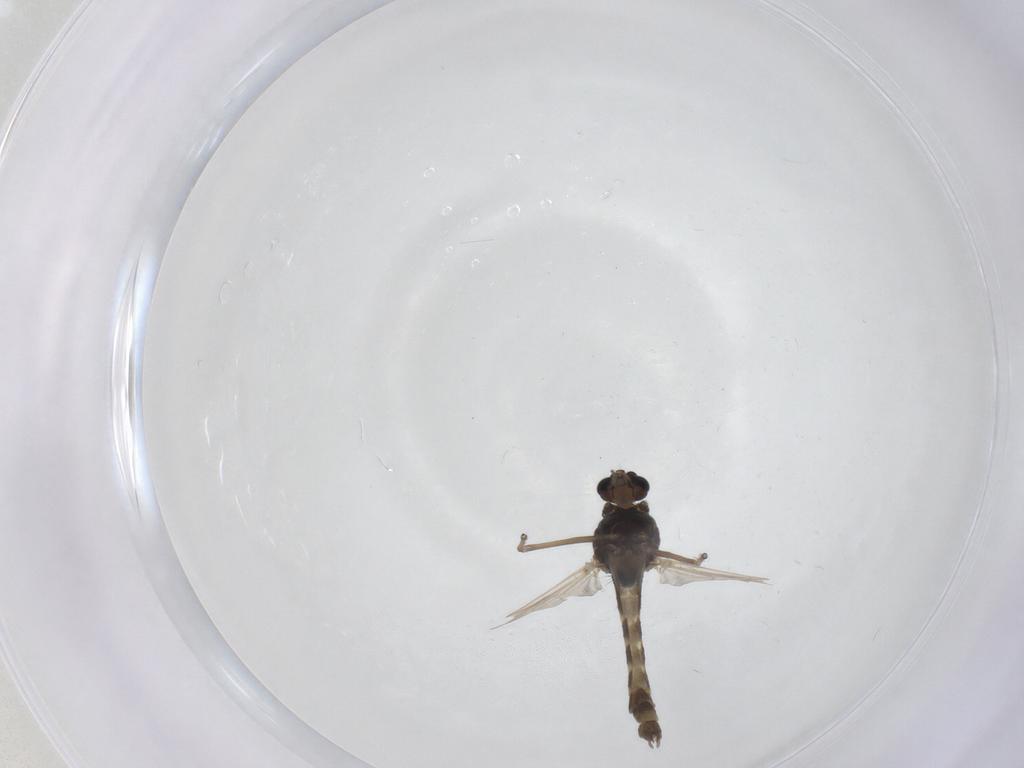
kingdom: Animalia
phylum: Arthropoda
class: Insecta
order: Diptera
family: Chironomidae
